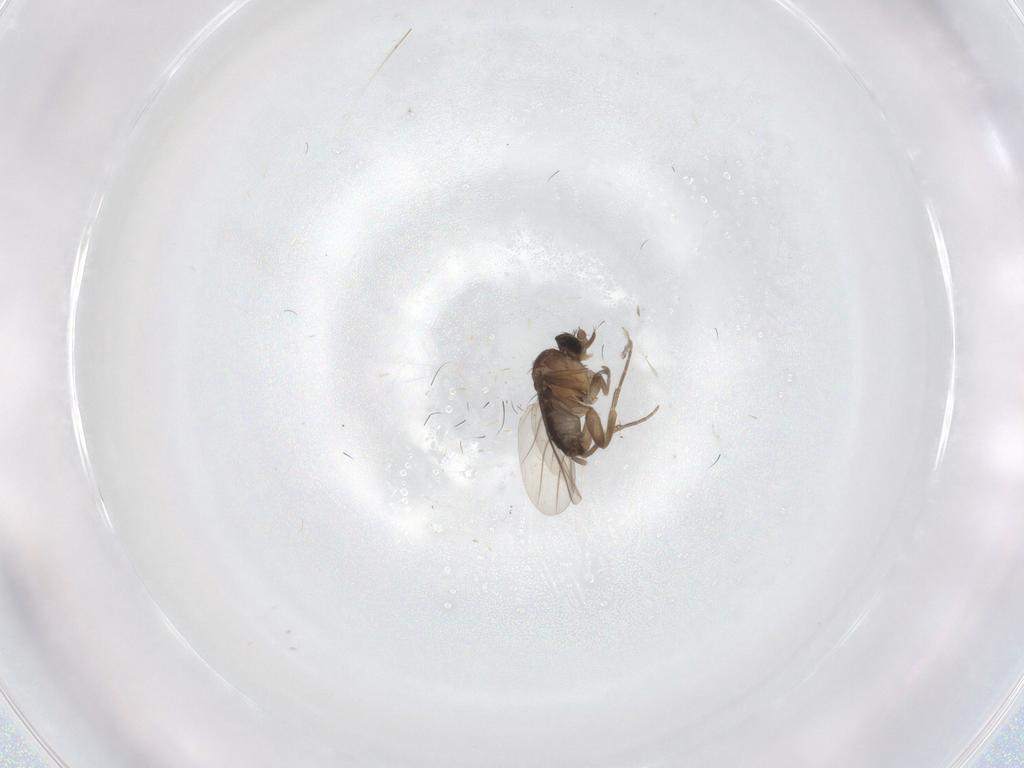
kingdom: Animalia
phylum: Arthropoda
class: Insecta
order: Diptera
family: Phoridae
